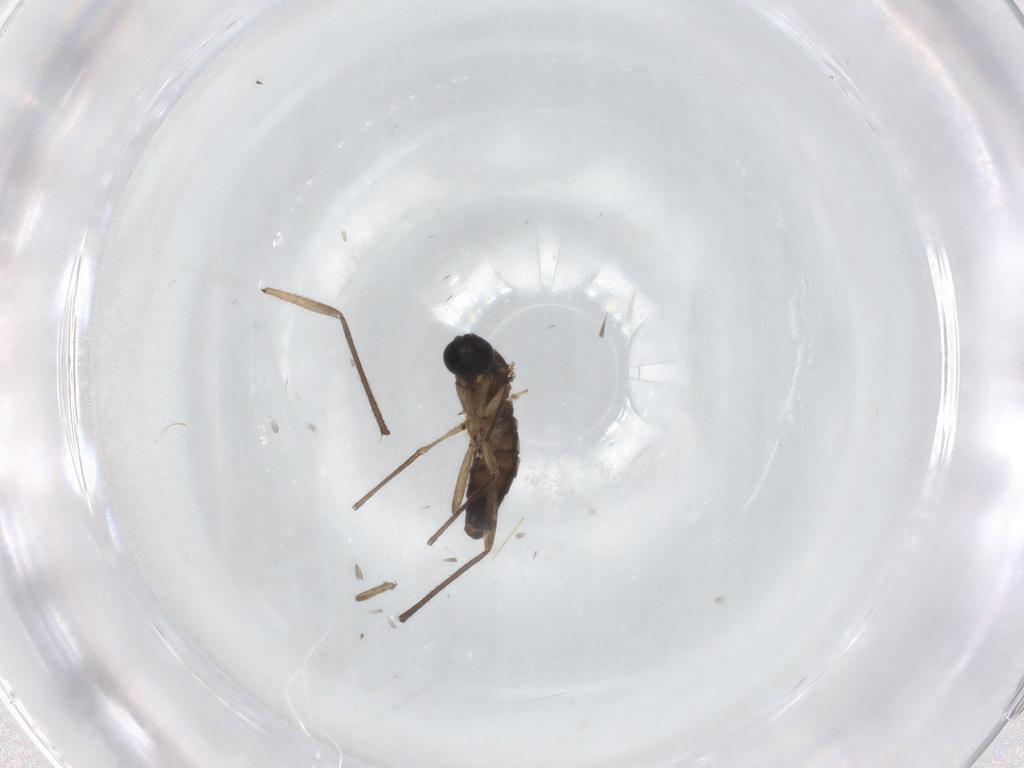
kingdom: Animalia
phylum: Arthropoda
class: Insecta
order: Diptera
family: Sciaridae
